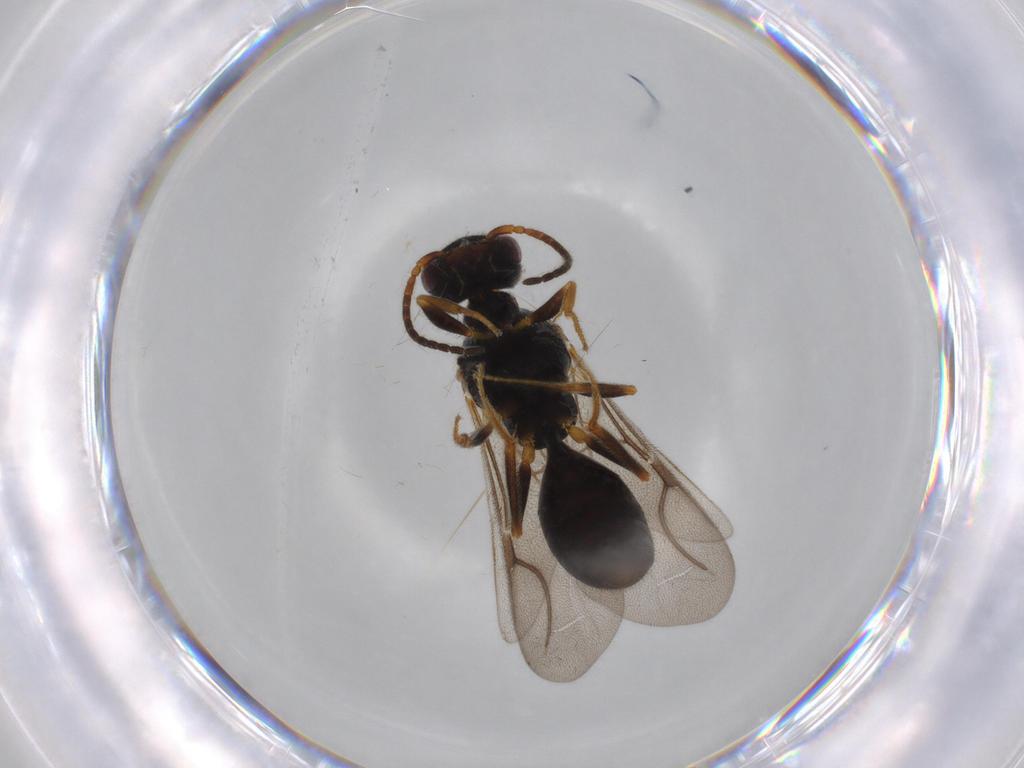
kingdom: Animalia
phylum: Arthropoda
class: Insecta
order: Hymenoptera
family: Bethylidae
